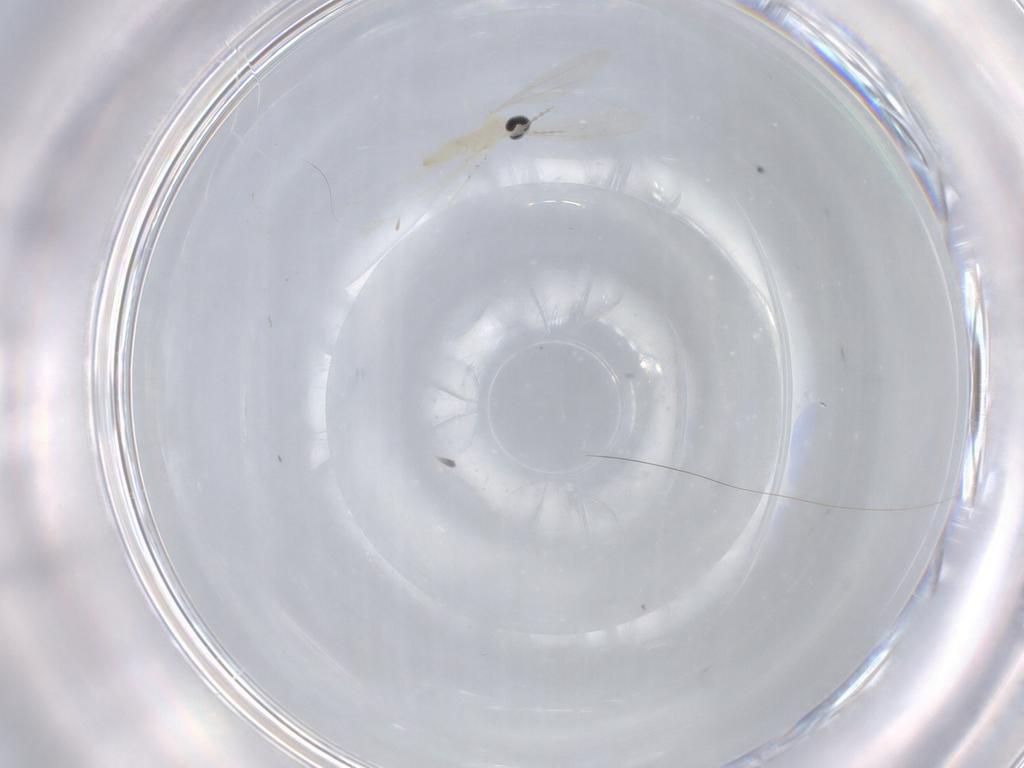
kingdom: Animalia
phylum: Arthropoda
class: Insecta
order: Diptera
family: Cecidomyiidae
